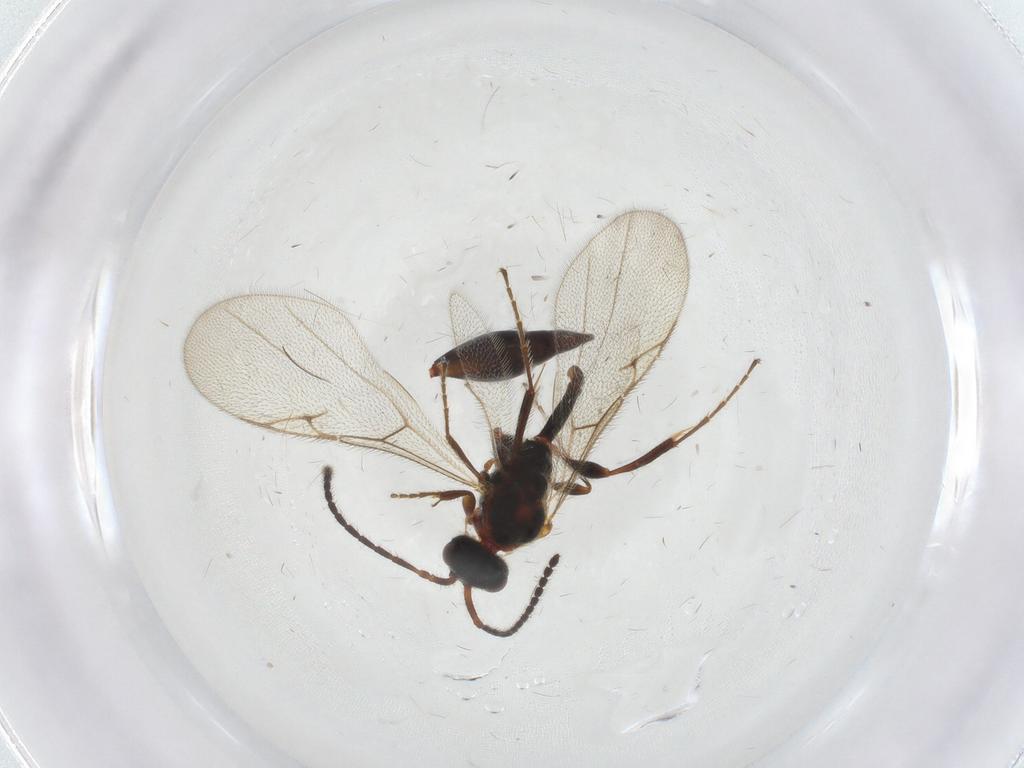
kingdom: Animalia
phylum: Arthropoda
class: Insecta
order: Hymenoptera
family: Diapriidae
